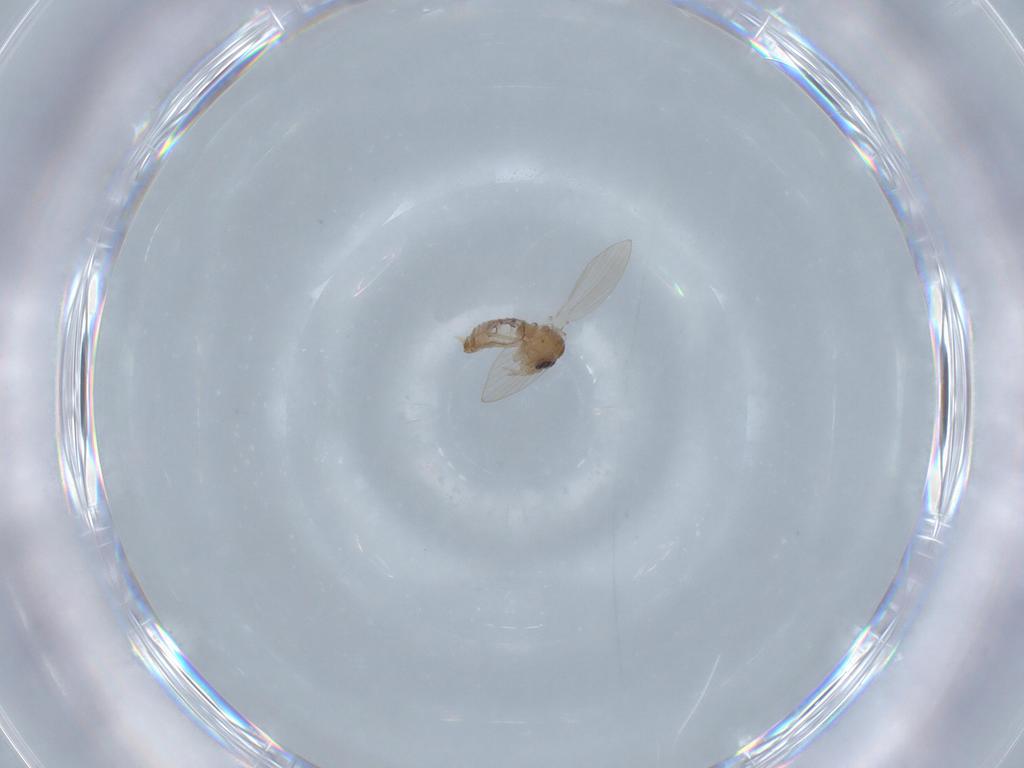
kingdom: Animalia
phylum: Arthropoda
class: Insecta
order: Diptera
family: Psychodidae
